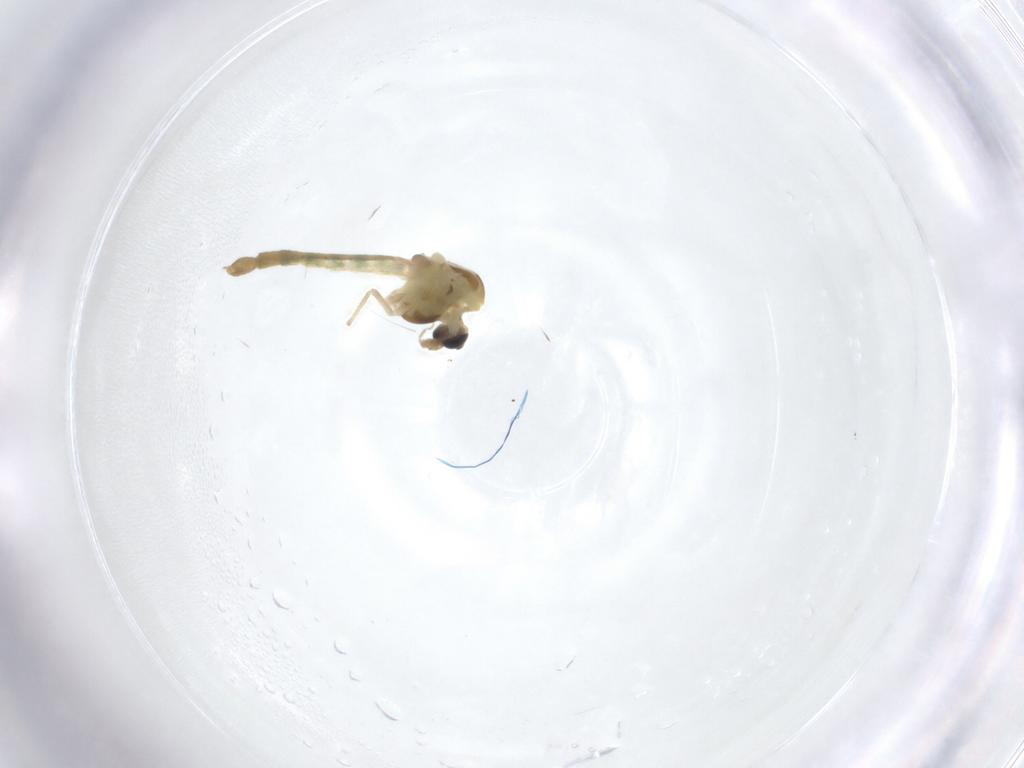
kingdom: Animalia
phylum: Arthropoda
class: Insecta
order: Diptera
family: Chironomidae
